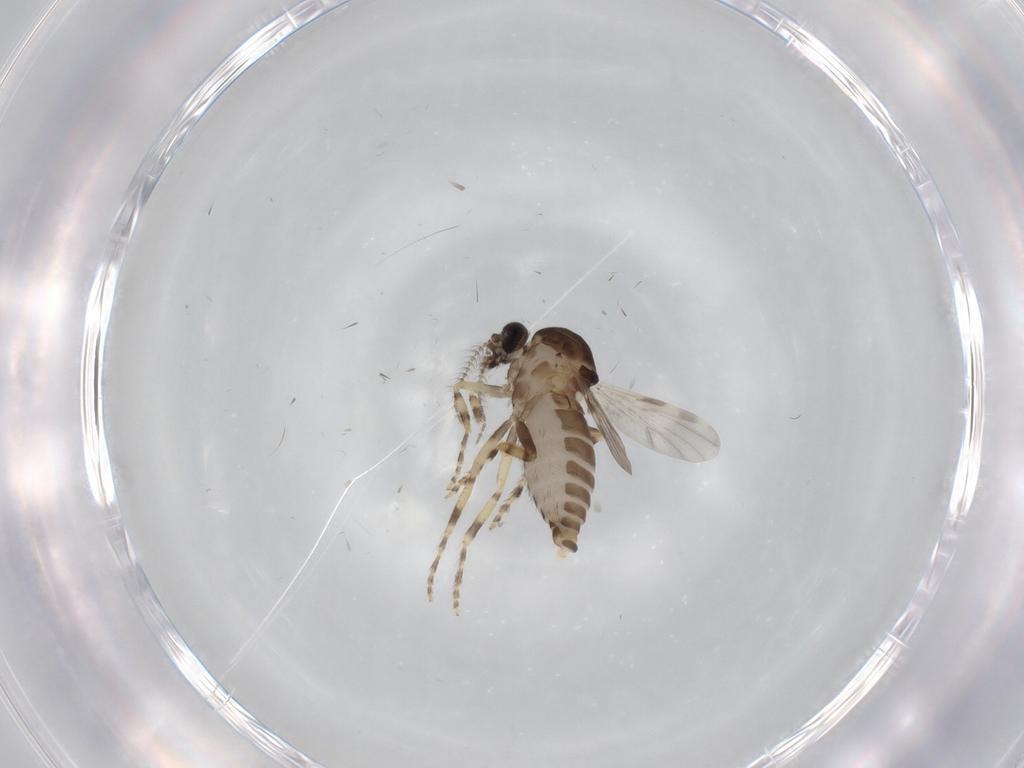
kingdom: Animalia
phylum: Arthropoda
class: Insecta
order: Diptera
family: Ceratopogonidae
